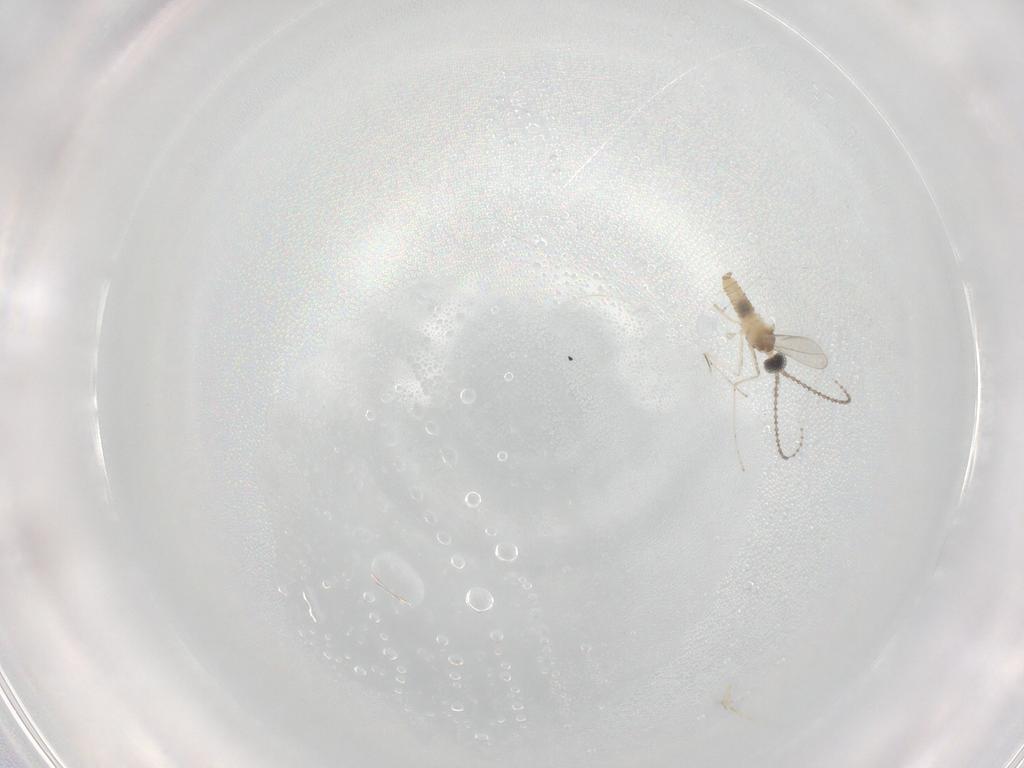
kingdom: Animalia
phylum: Arthropoda
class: Insecta
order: Diptera
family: Cecidomyiidae
